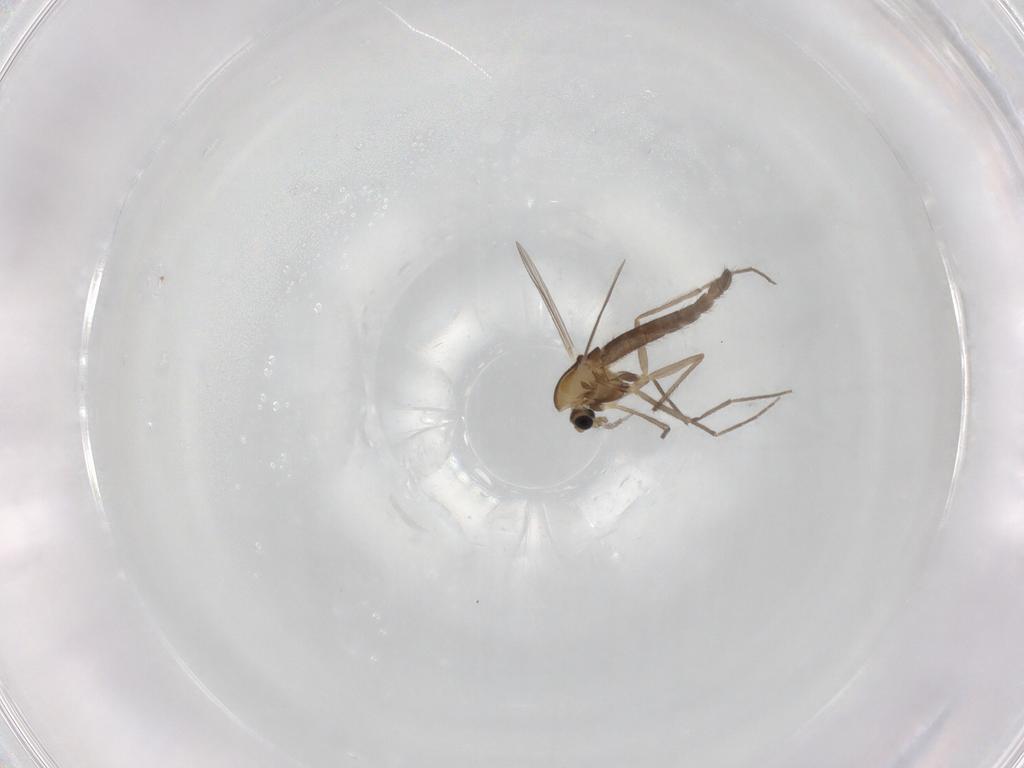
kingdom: Animalia
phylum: Arthropoda
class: Insecta
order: Diptera
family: Chironomidae
